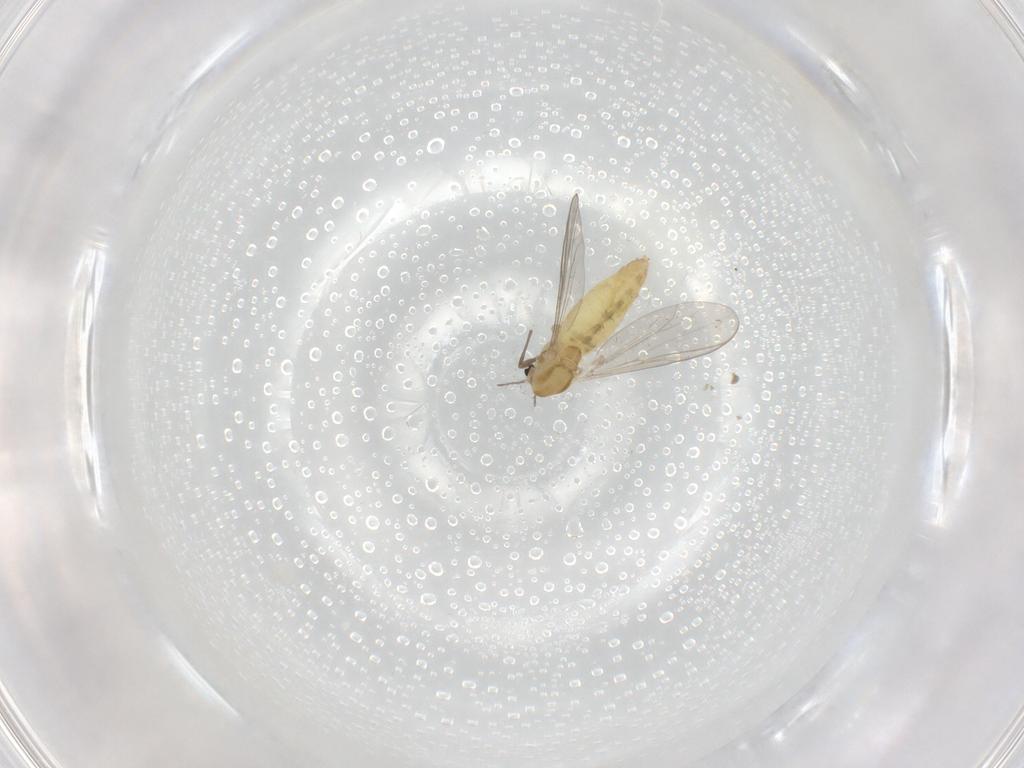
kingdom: Animalia
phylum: Arthropoda
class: Insecta
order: Diptera
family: Chironomidae
